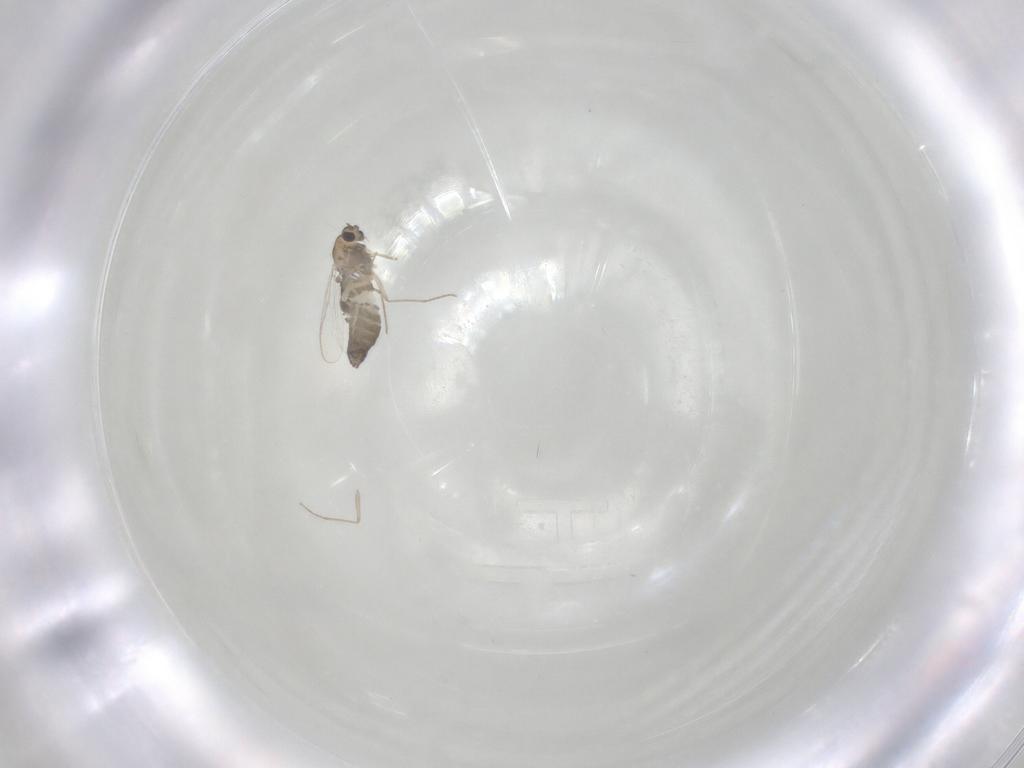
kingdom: Animalia
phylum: Arthropoda
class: Insecta
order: Diptera
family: Chironomidae
